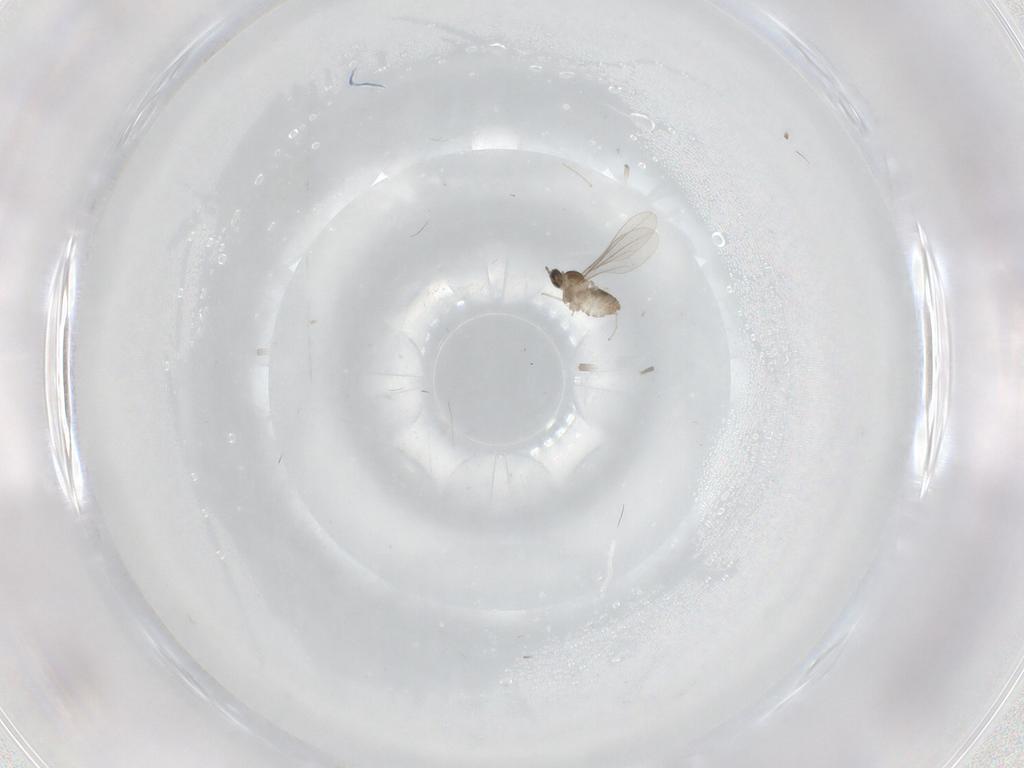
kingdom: Animalia
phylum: Arthropoda
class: Insecta
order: Diptera
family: Cecidomyiidae
